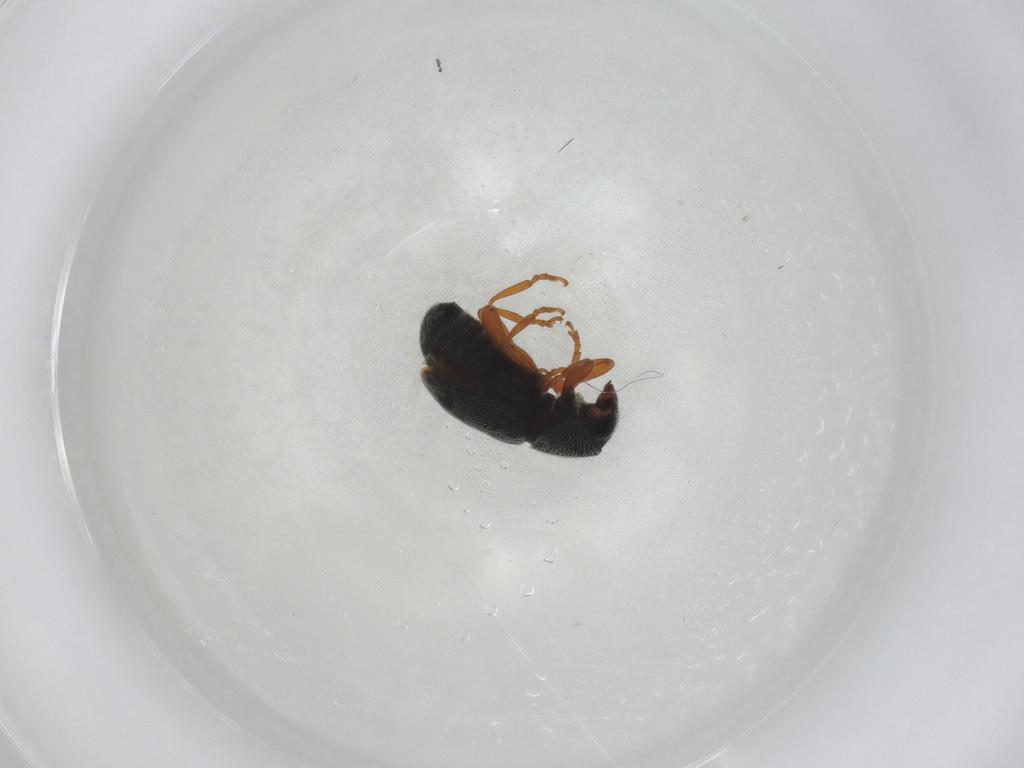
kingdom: Animalia
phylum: Arthropoda
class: Insecta
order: Coleoptera
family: Anthribidae
